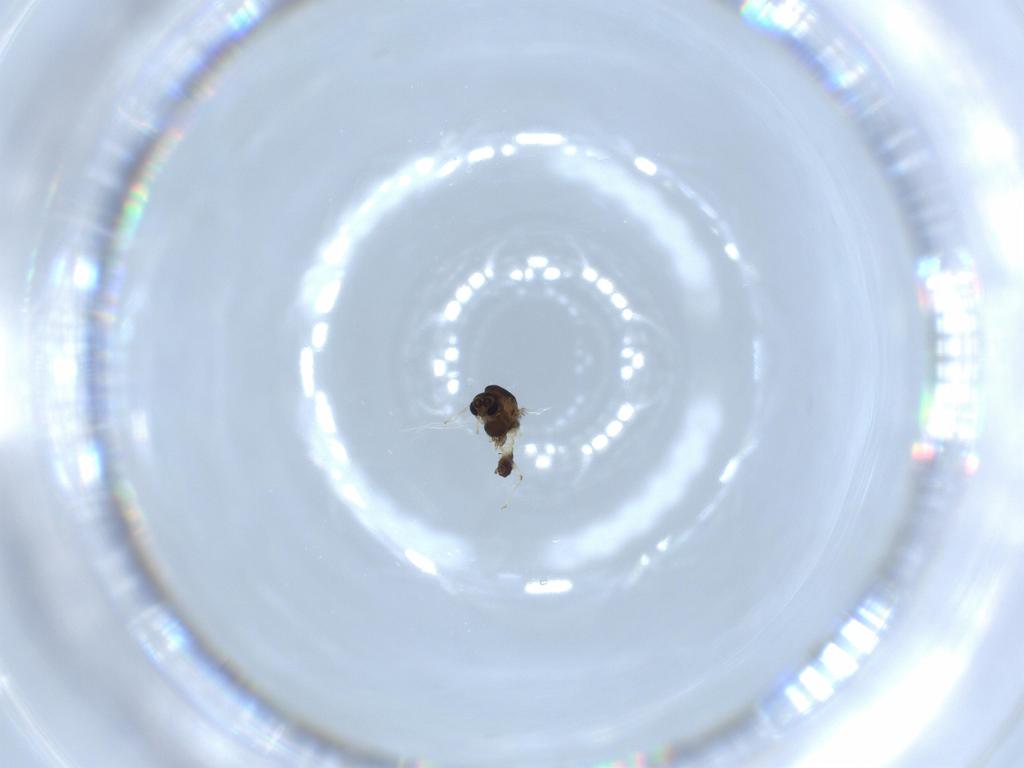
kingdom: Animalia
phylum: Arthropoda
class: Insecta
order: Diptera
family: Chironomidae
